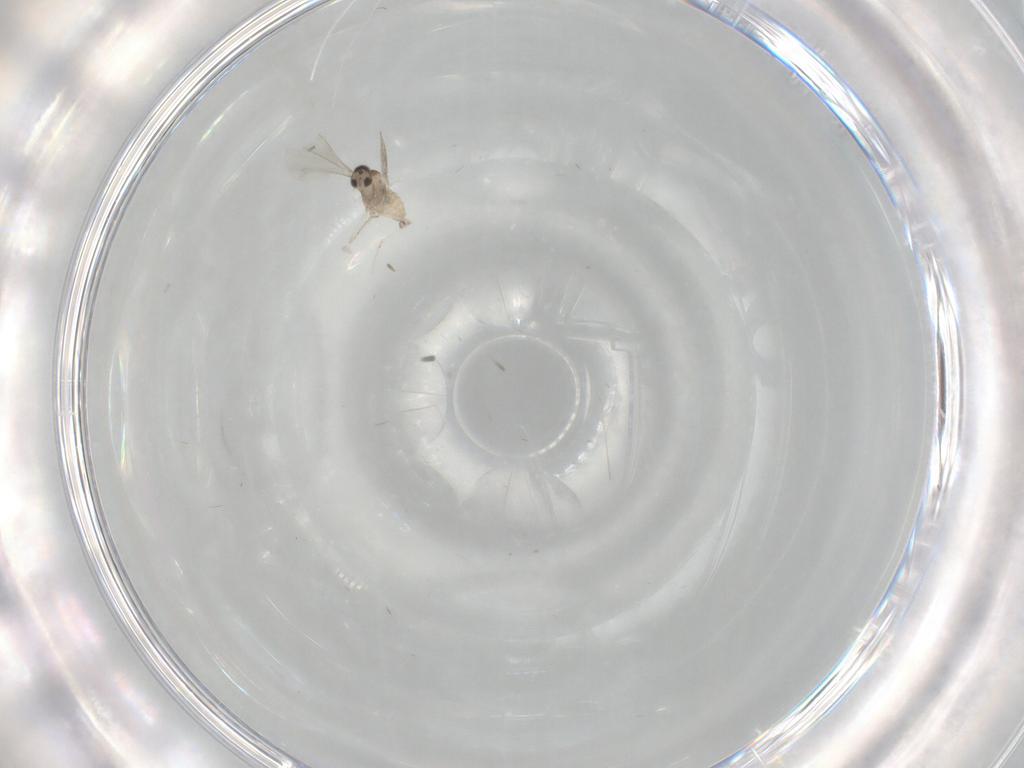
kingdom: Animalia
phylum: Arthropoda
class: Insecta
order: Diptera
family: Cecidomyiidae
